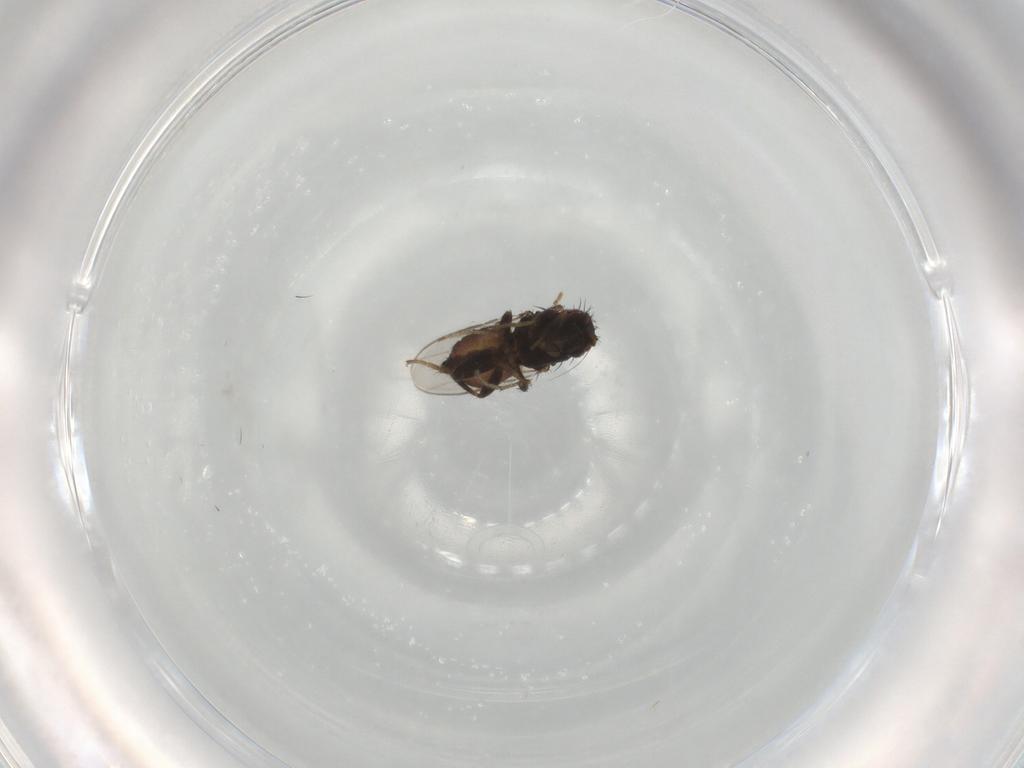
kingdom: Animalia
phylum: Arthropoda
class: Insecta
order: Diptera
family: Sphaeroceridae
